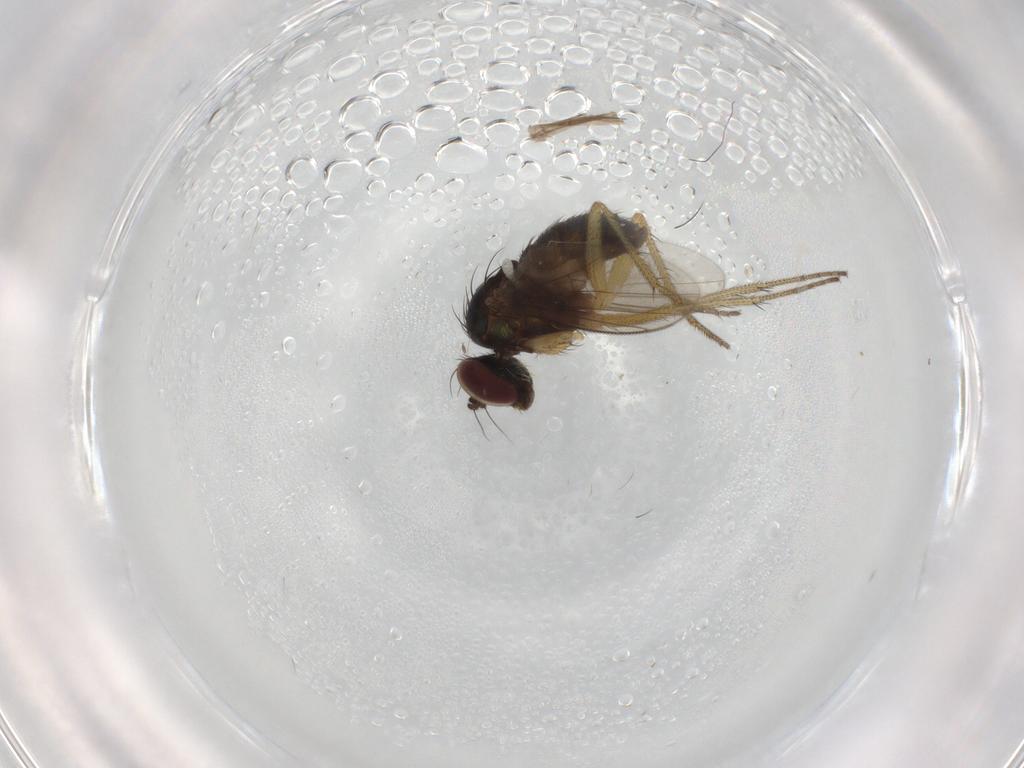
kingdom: Animalia
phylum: Arthropoda
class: Insecta
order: Diptera
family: Dolichopodidae
